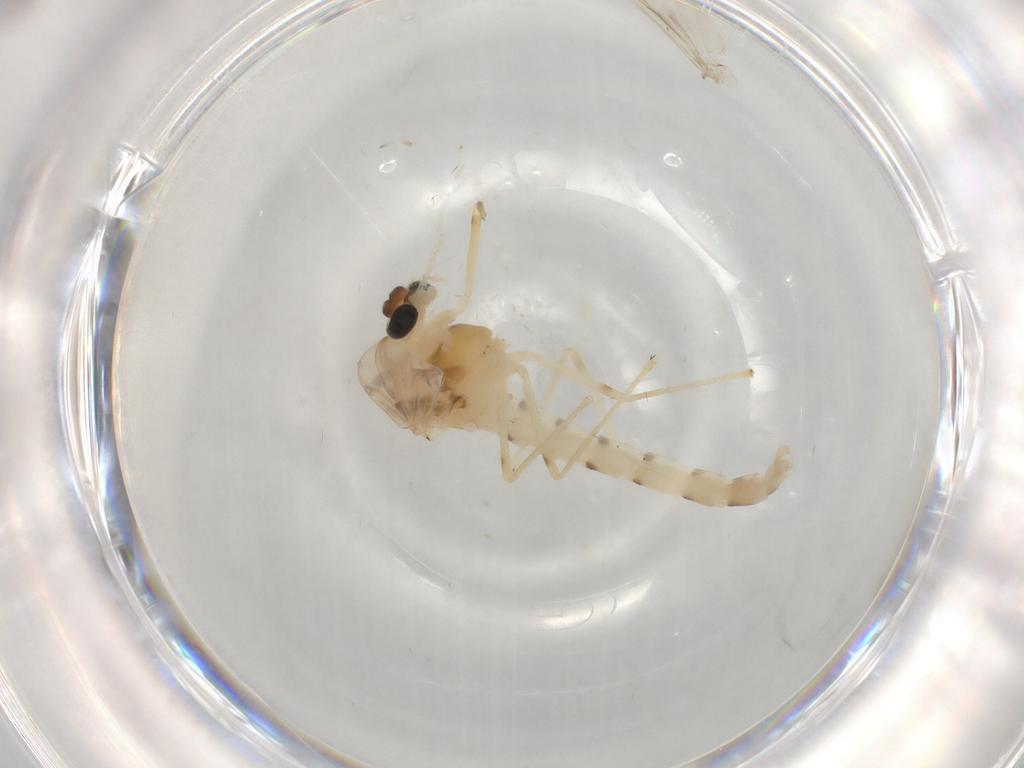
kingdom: Animalia
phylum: Arthropoda
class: Insecta
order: Diptera
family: Chironomidae
